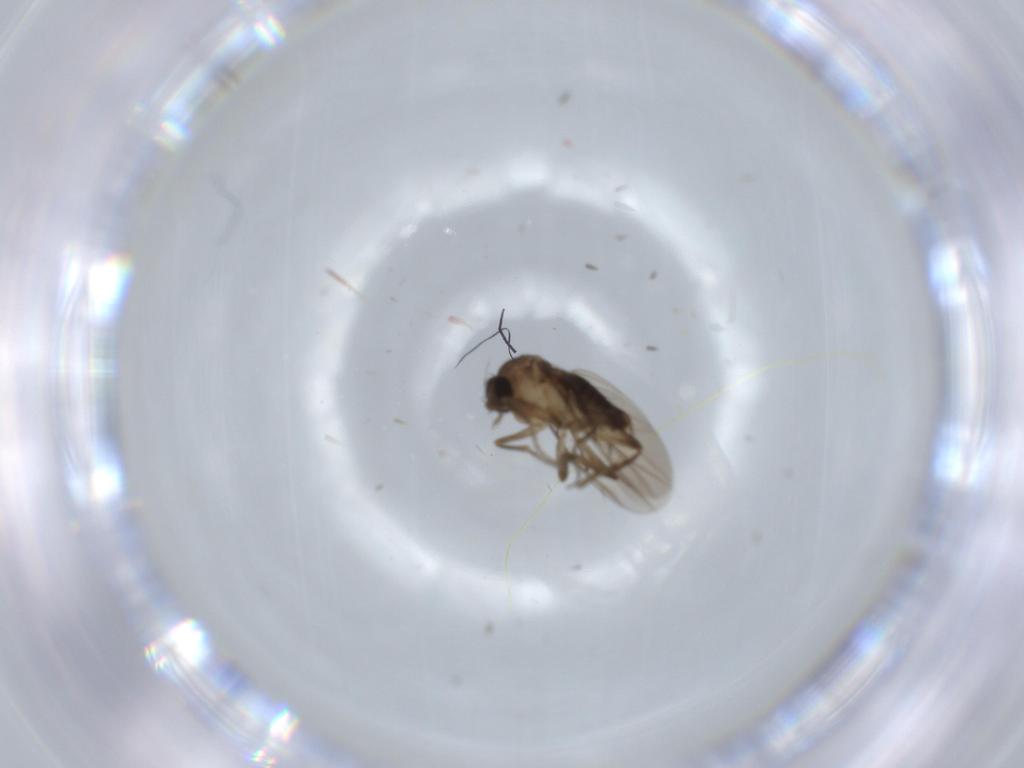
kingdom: Animalia
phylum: Arthropoda
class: Insecta
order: Diptera
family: Phoridae
